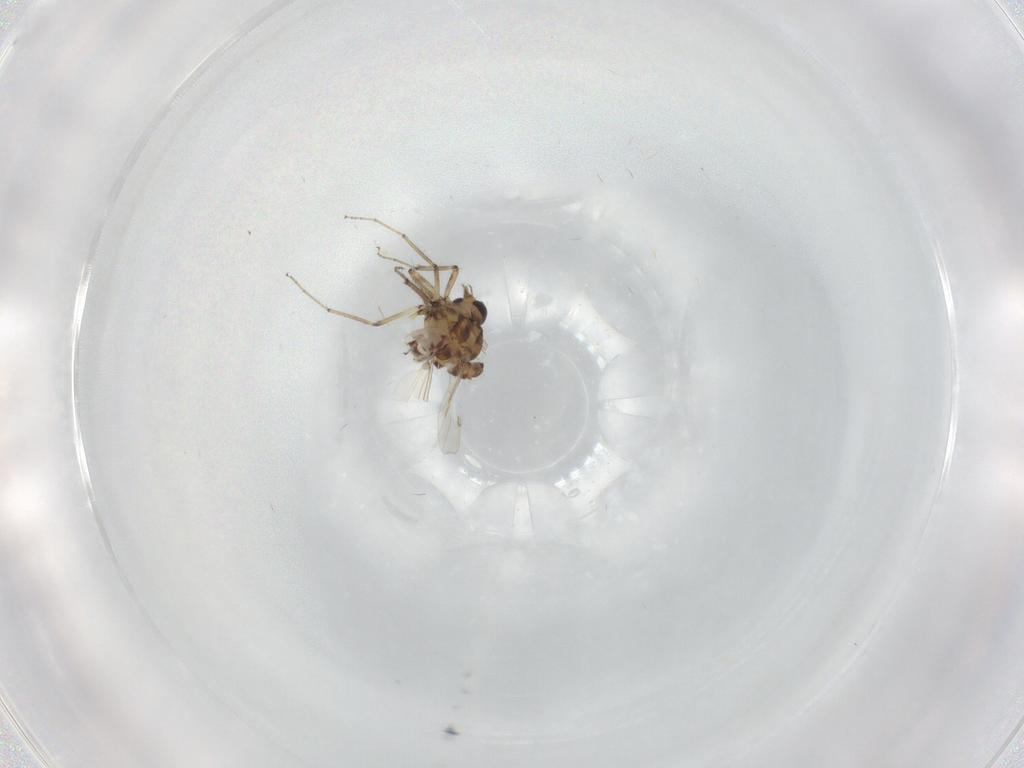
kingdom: Animalia
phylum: Arthropoda
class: Insecta
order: Diptera
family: Ceratopogonidae
